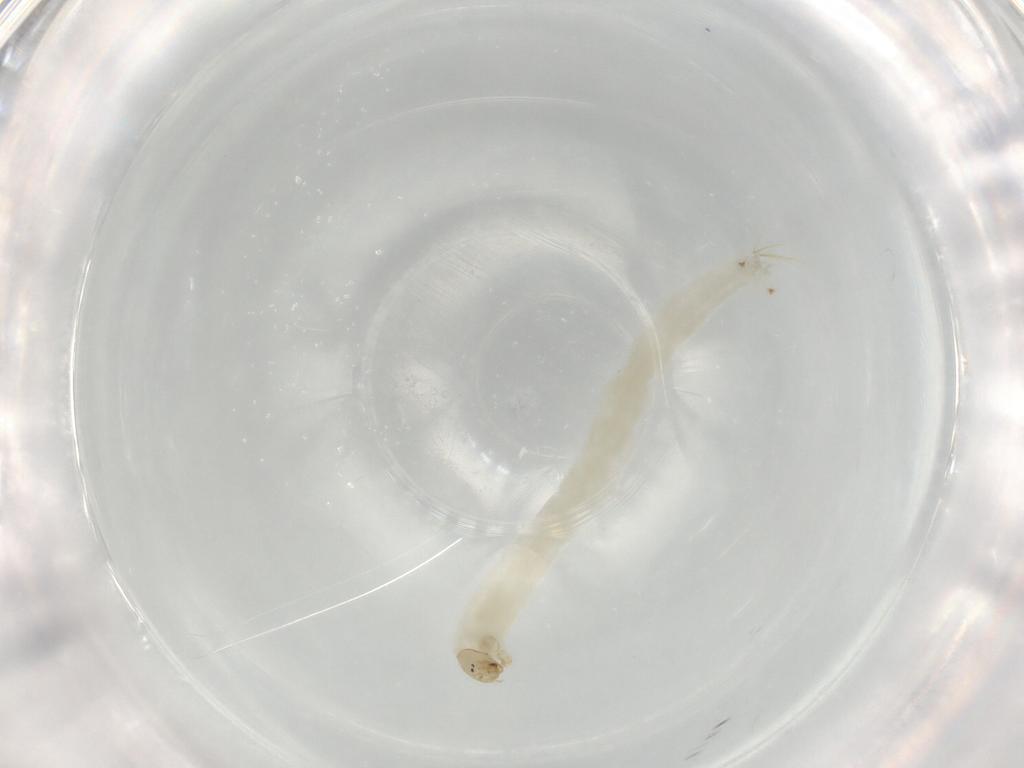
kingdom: Animalia
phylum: Arthropoda
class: Insecta
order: Diptera
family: Chironomidae
